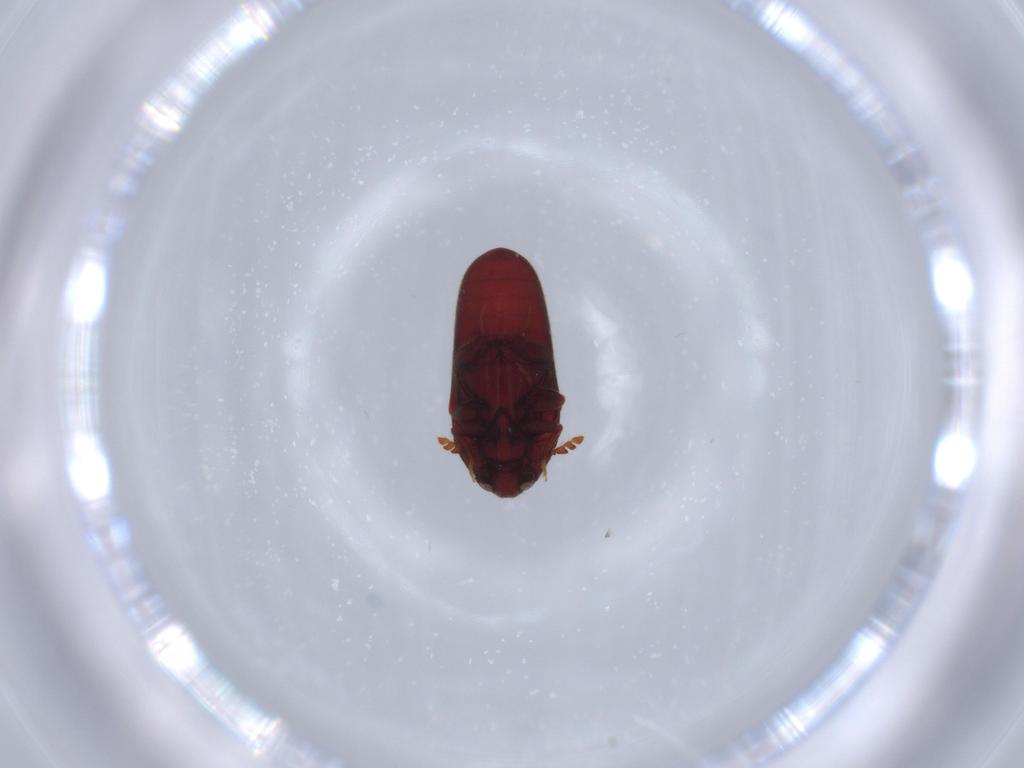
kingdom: Animalia
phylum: Arthropoda
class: Insecta
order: Coleoptera
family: Throscidae
